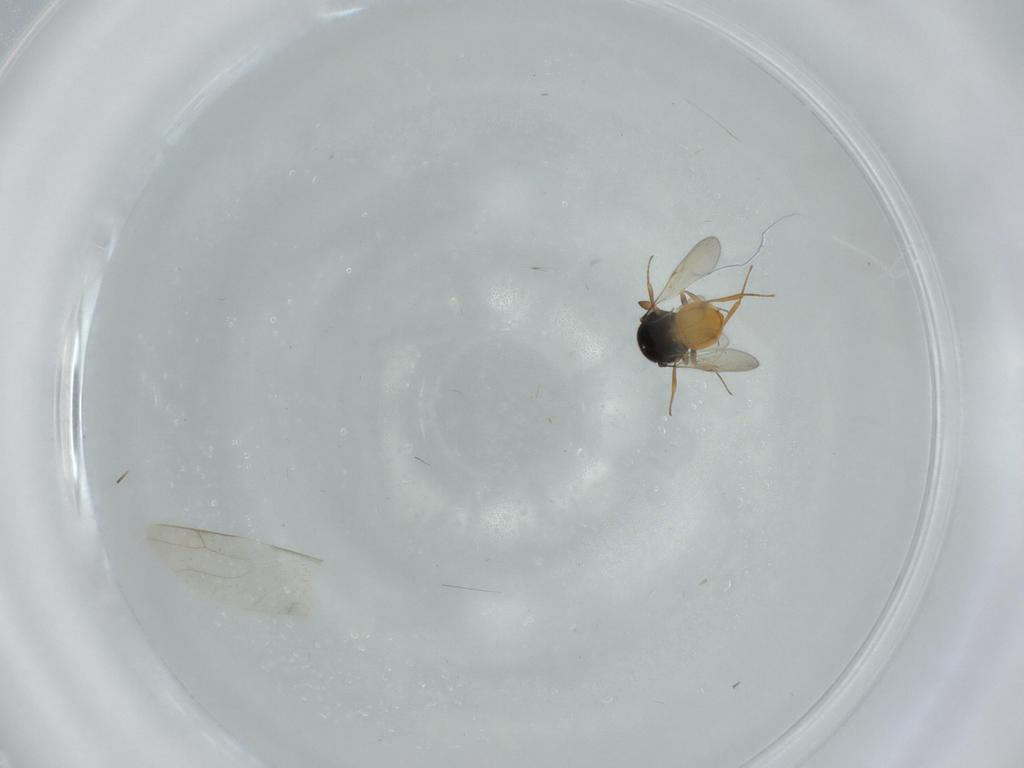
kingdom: Animalia
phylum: Arthropoda
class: Insecta
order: Hymenoptera
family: Scelionidae
